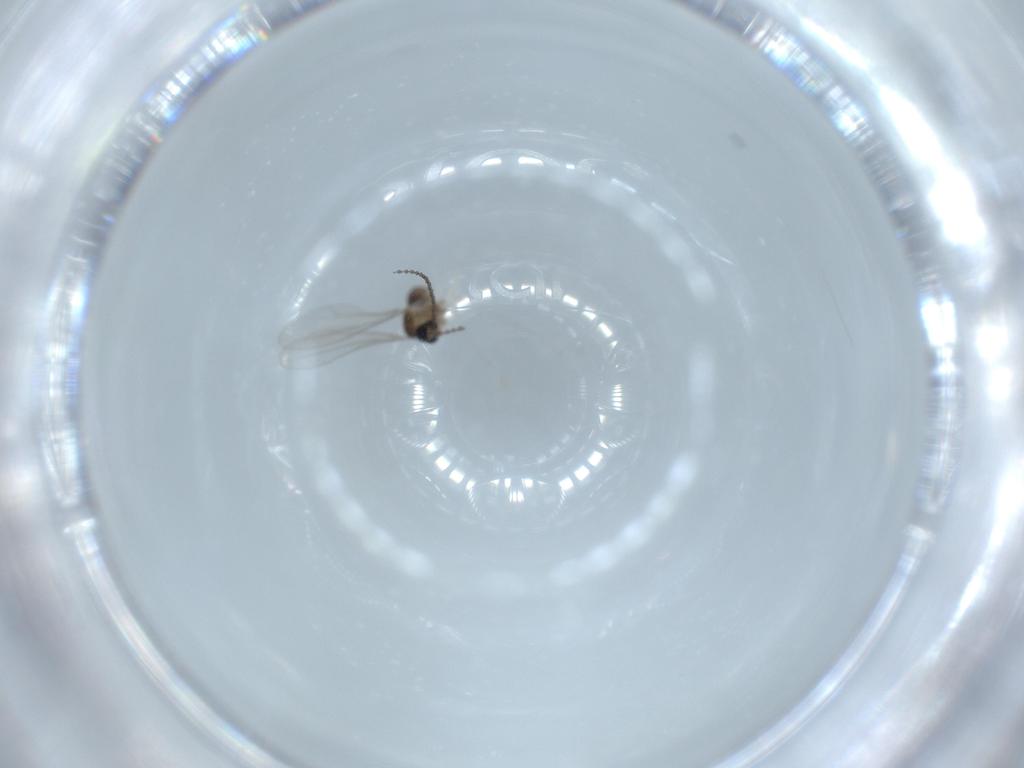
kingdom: Animalia
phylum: Arthropoda
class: Insecta
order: Diptera
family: Cecidomyiidae
